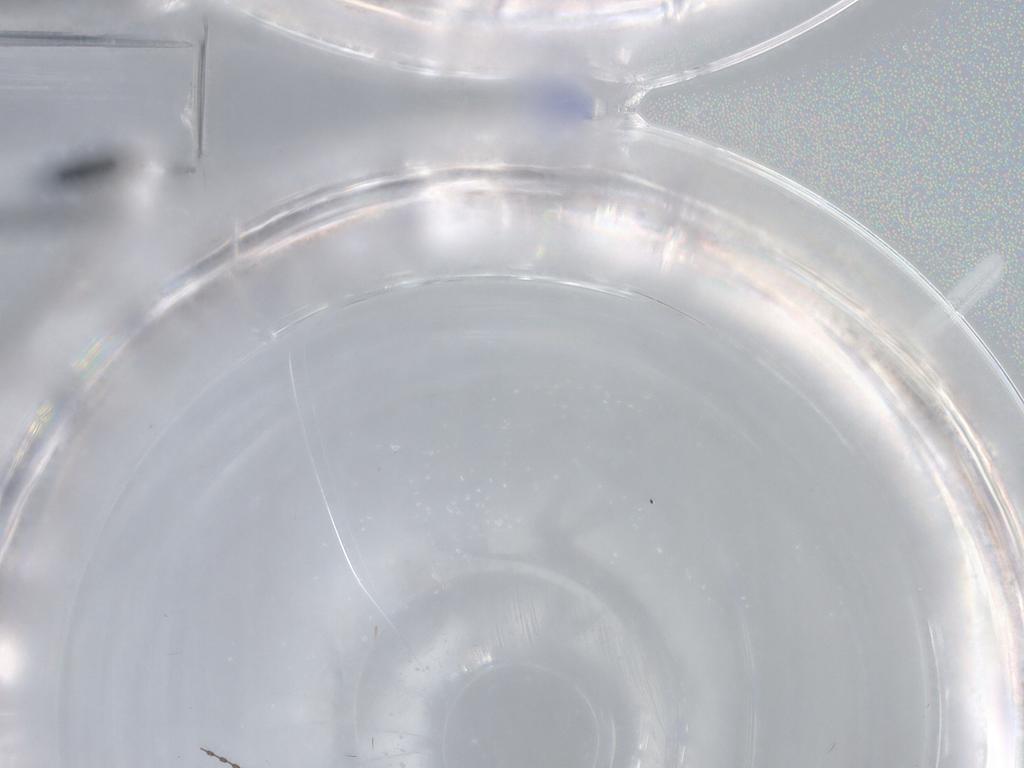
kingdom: Animalia
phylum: Arthropoda
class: Insecta
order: Diptera
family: Cecidomyiidae
